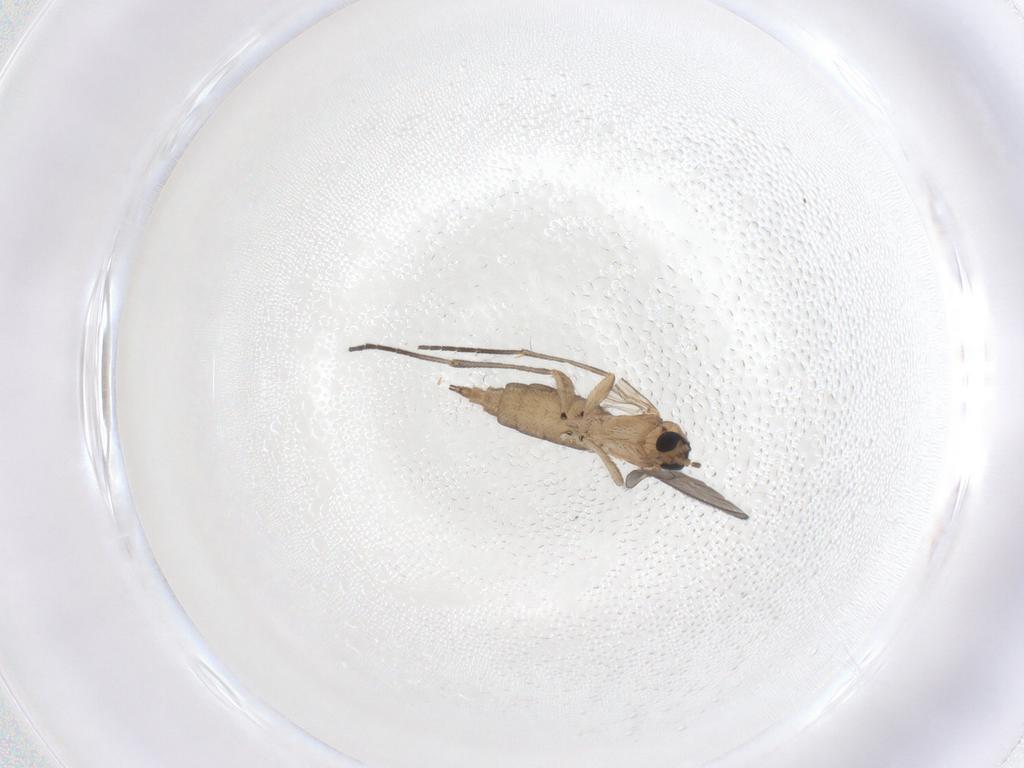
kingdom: Animalia
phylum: Arthropoda
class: Insecta
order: Diptera
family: Sciaridae
